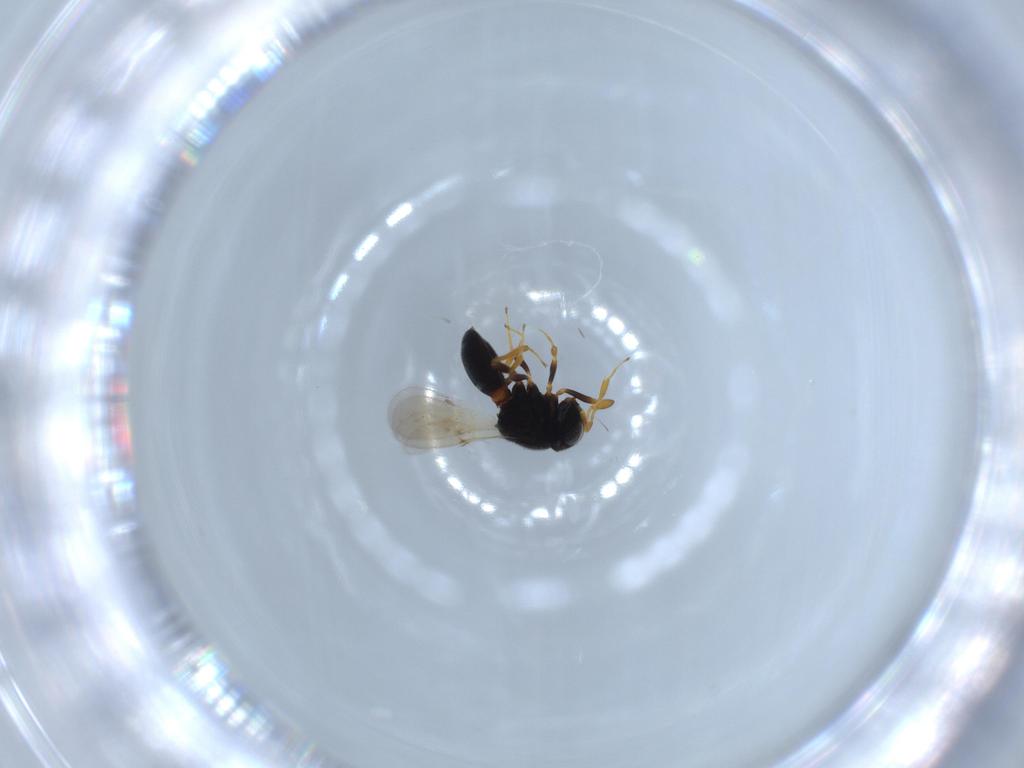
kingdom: Animalia
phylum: Arthropoda
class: Insecta
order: Hymenoptera
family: Scelionidae
